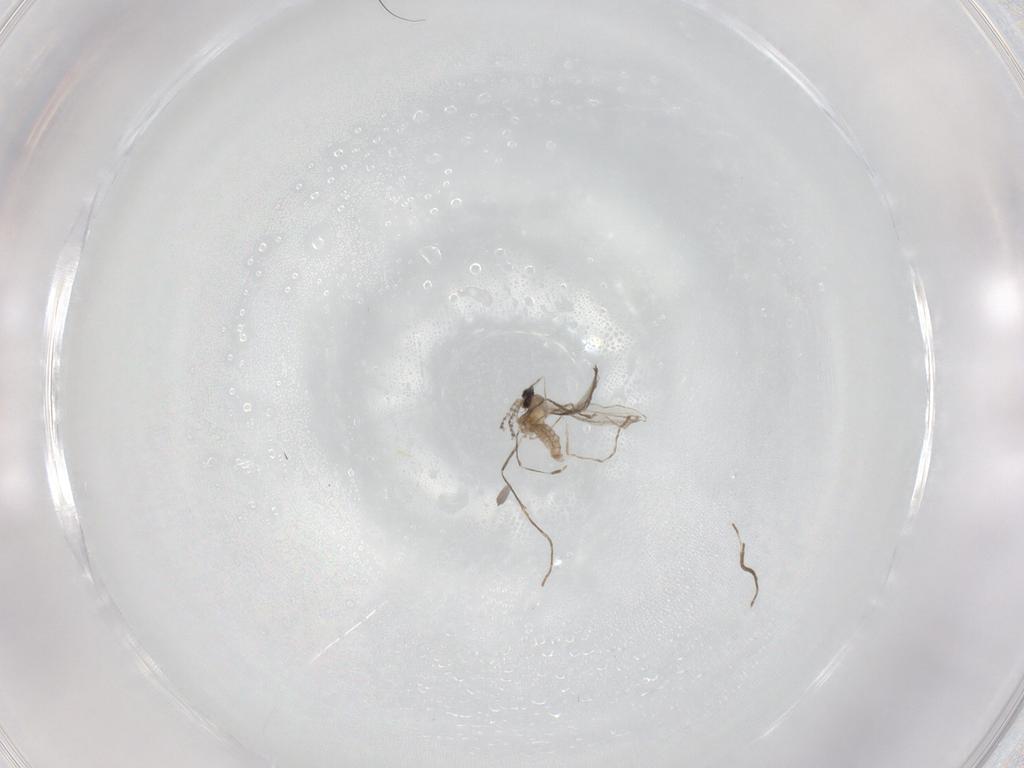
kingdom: Animalia
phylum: Arthropoda
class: Insecta
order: Diptera
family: Cecidomyiidae
